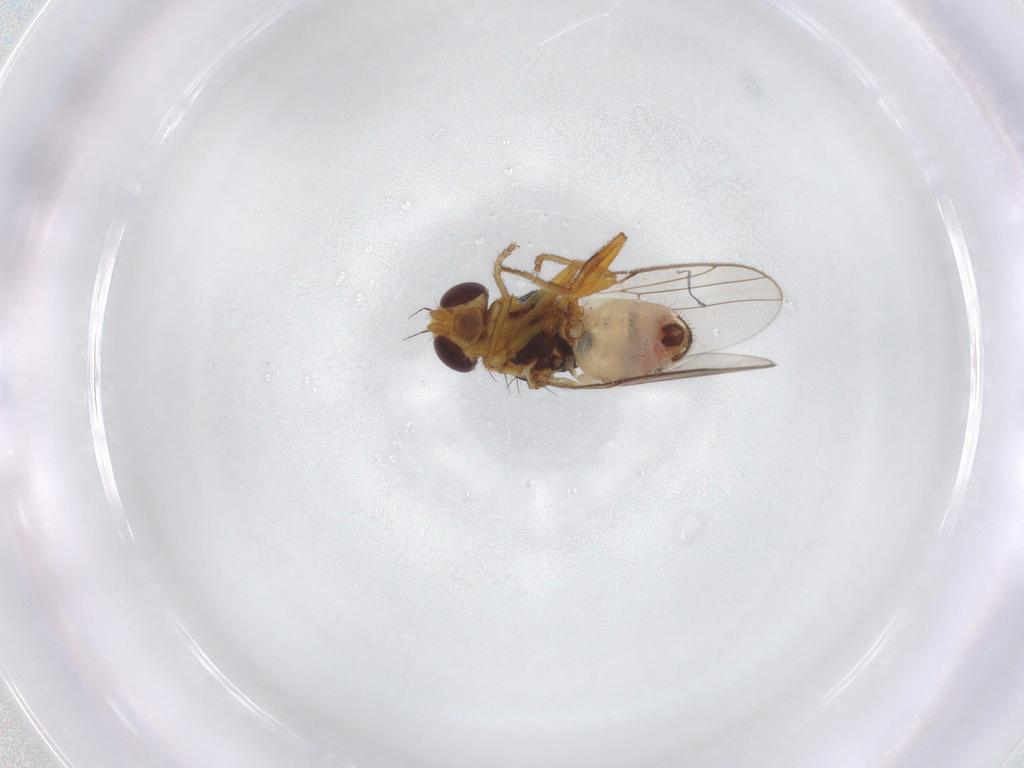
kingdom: Animalia
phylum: Arthropoda
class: Insecta
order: Diptera
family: Chloropidae
